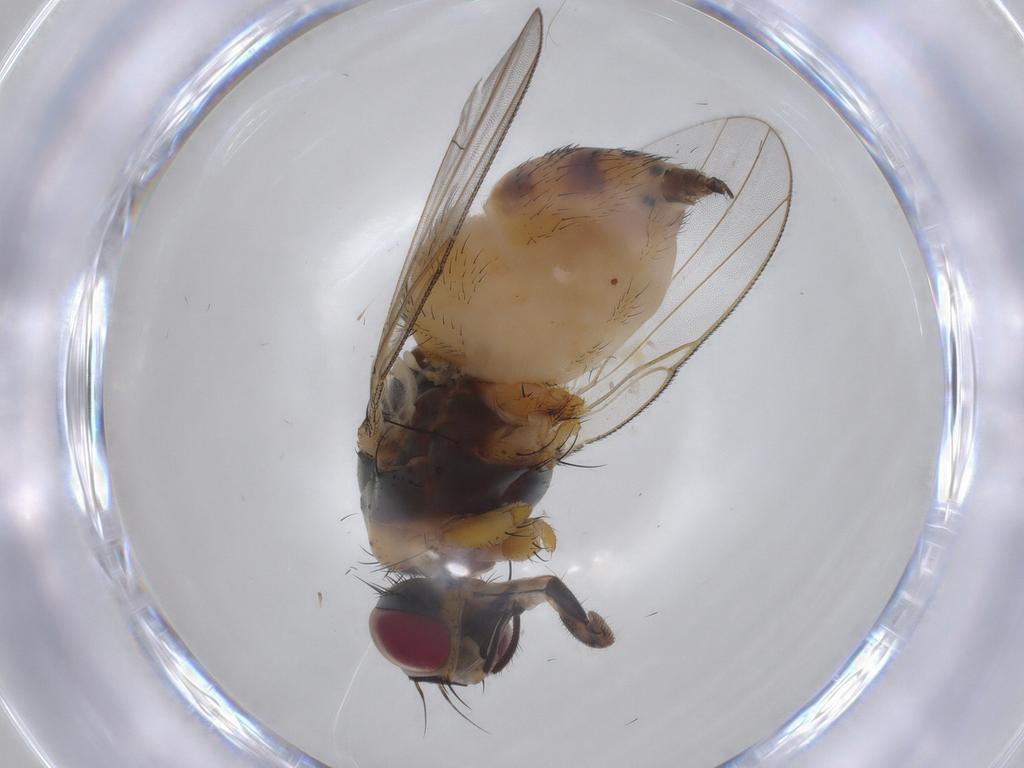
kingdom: Animalia
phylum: Arthropoda
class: Insecta
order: Diptera
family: Muscidae
